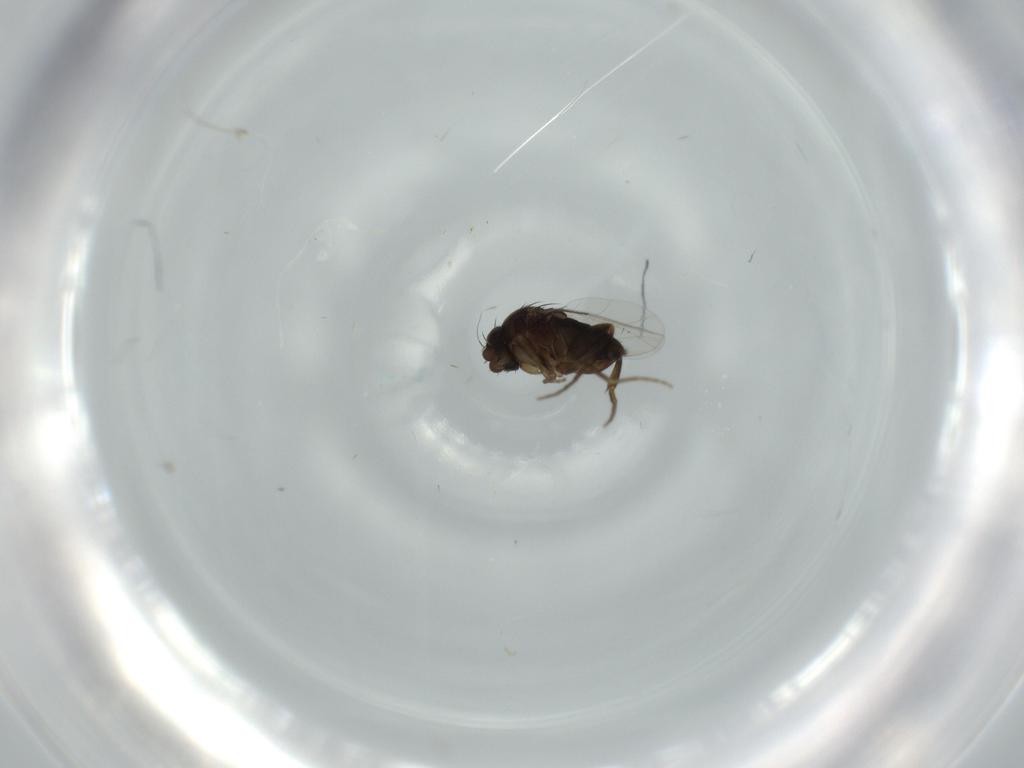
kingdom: Animalia
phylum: Arthropoda
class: Insecta
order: Diptera
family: Phoridae
